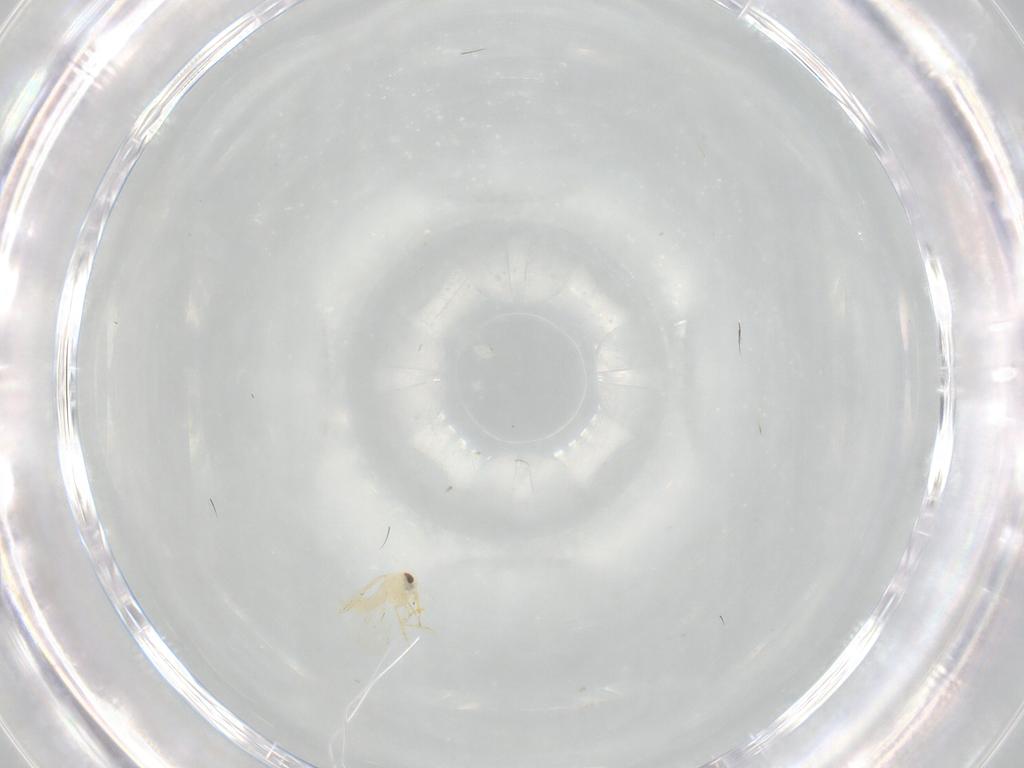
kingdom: Animalia
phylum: Arthropoda
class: Insecta
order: Hemiptera
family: Aleyrodidae
